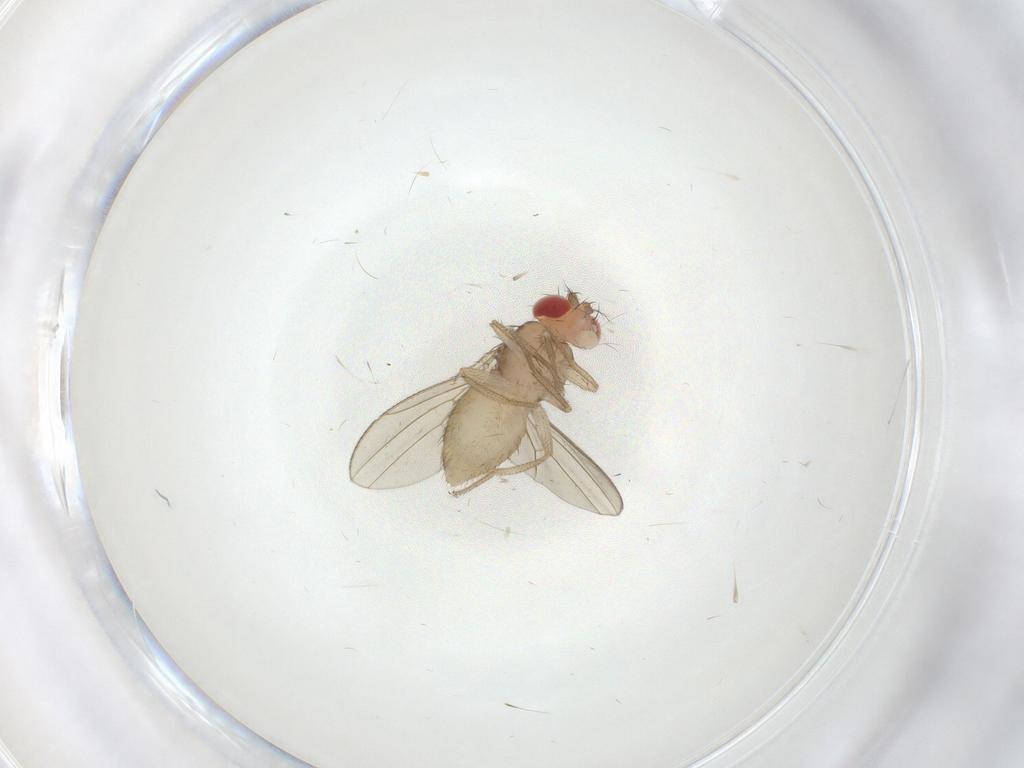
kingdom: Animalia
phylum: Arthropoda
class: Insecta
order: Diptera
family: Drosophilidae
